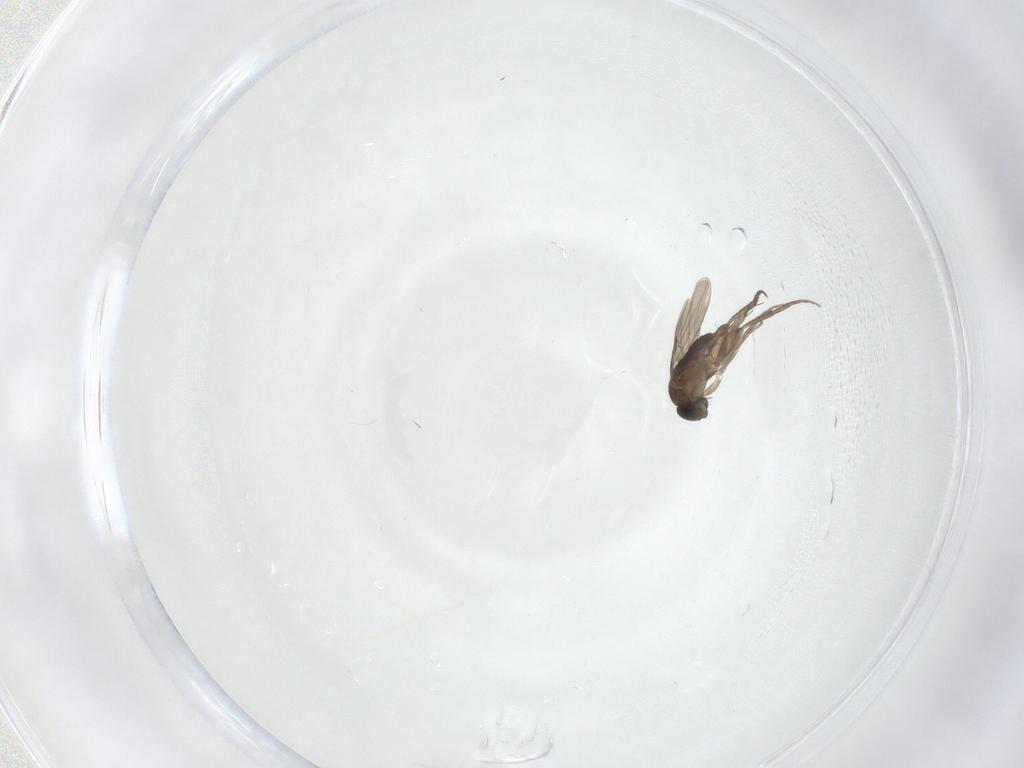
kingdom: Animalia
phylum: Arthropoda
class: Insecta
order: Diptera
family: Phoridae
